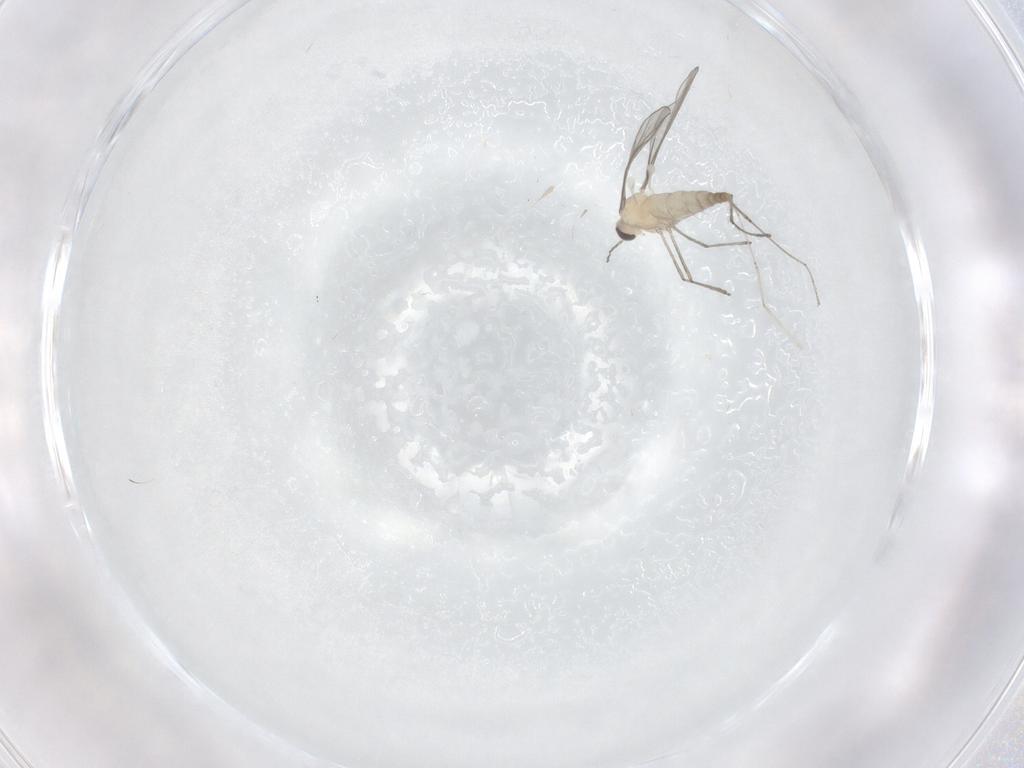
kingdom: Animalia
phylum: Arthropoda
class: Insecta
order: Diptera
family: Cecidomyiidae
